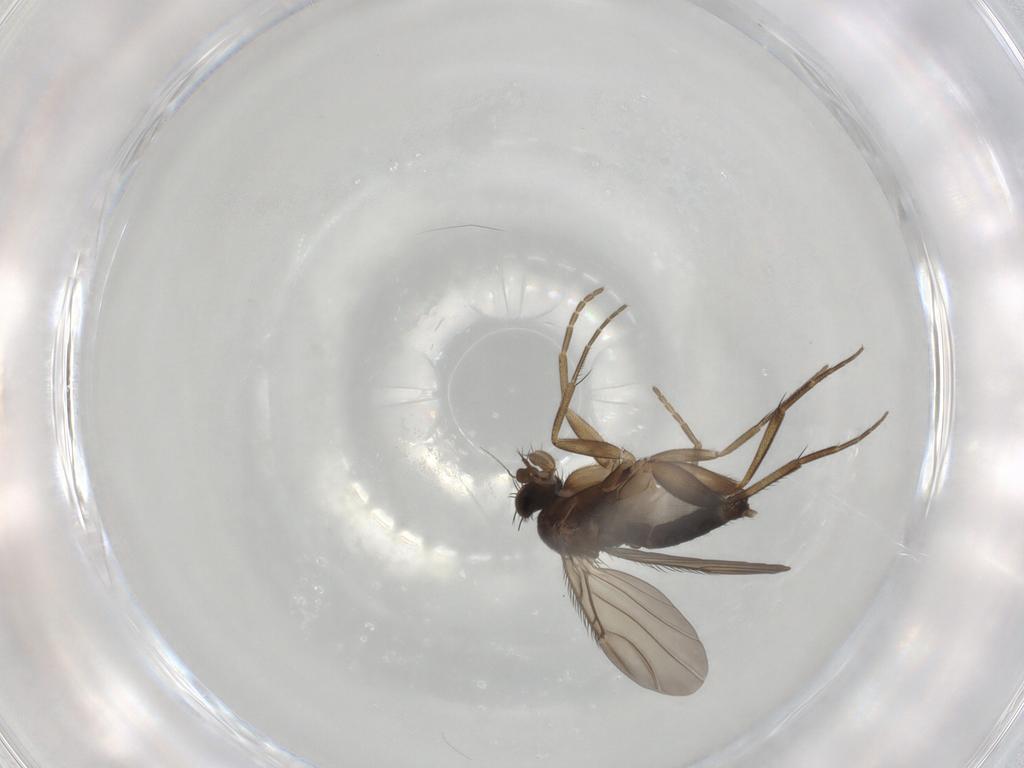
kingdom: Animalia
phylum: Arthropoda
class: Insecta
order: Diptera
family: Phoridae
